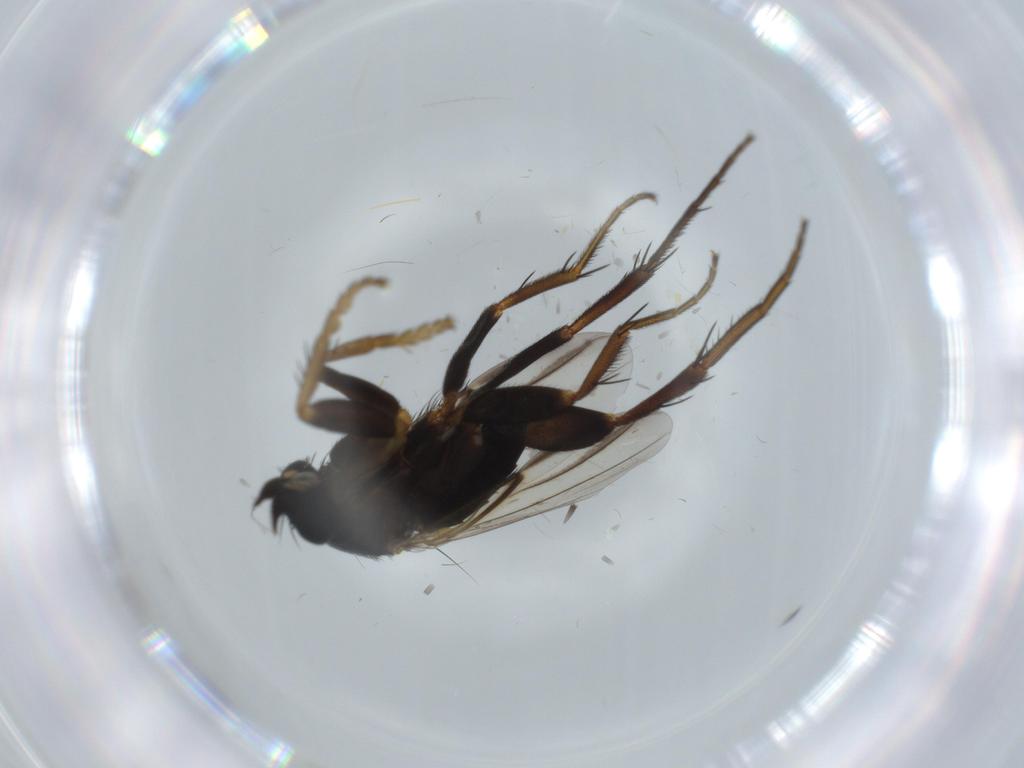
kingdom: Animalia
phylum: Arthropoda
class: Insecta
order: Diptera
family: Phoridae
